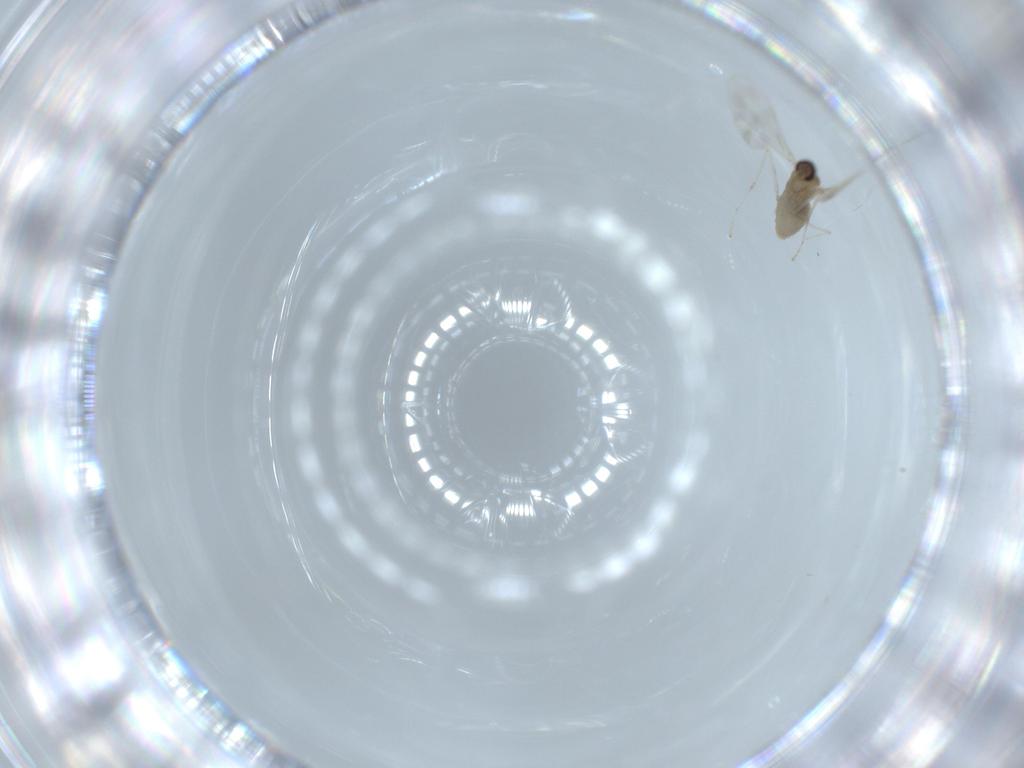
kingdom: Animalia
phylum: Arthropoda
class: Insecta
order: Diptera
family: Cecidomyiidae
